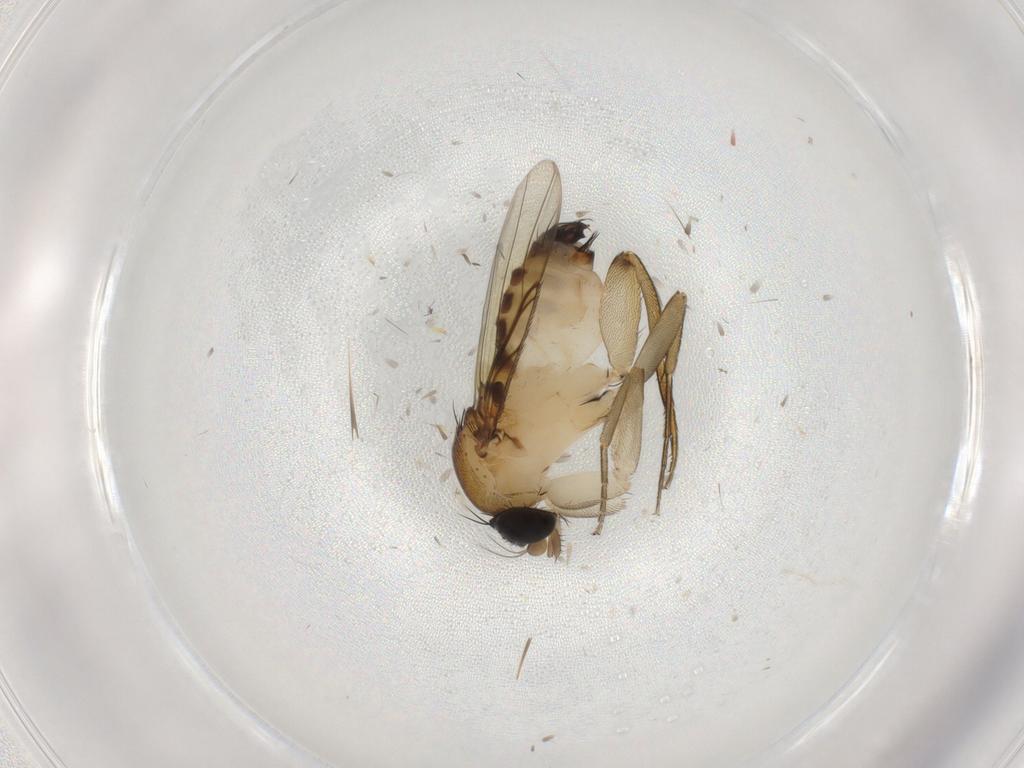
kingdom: Animalia
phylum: Arthropoda
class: Insecta
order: Diptera
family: Phoridae
